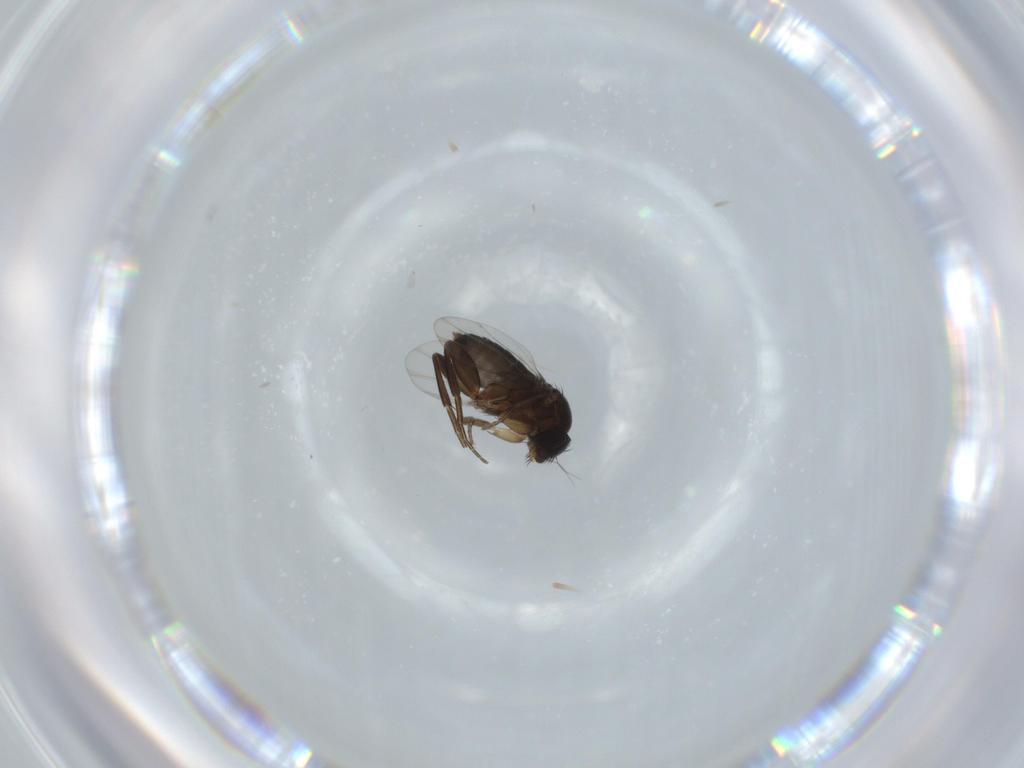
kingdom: Animalia
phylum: Arthropoda
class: Insecta
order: Diptera
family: Phoridae
